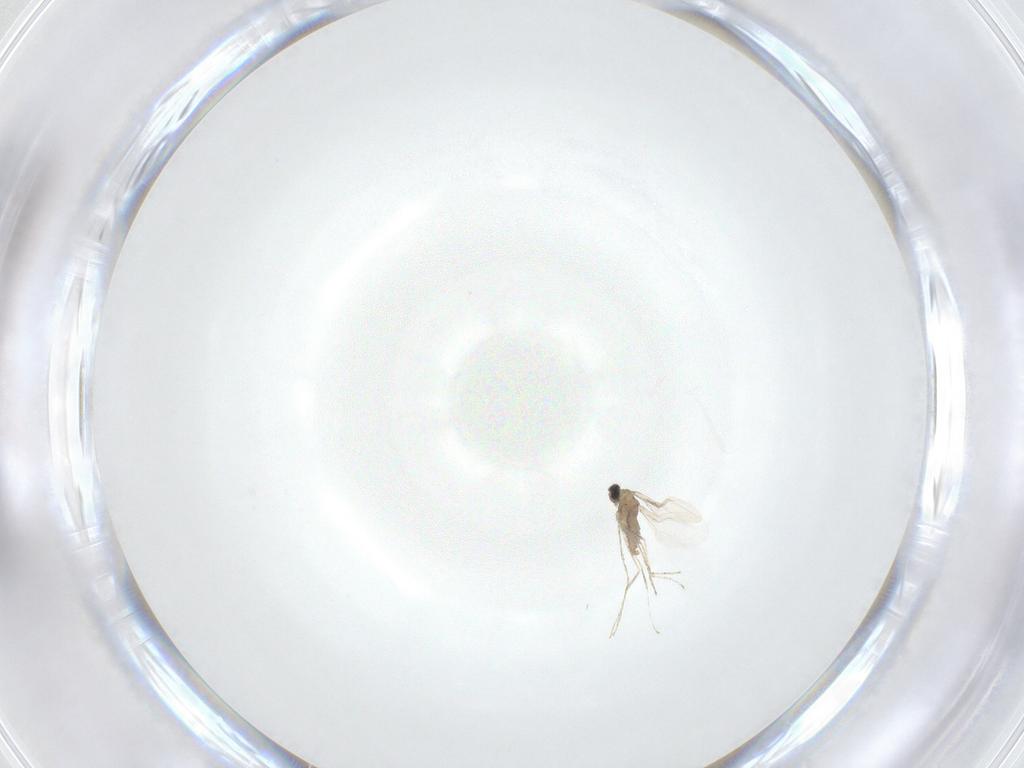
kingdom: Animalia
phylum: Arthropoda
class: Insecta
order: Diptera
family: Cecidomyiidae
